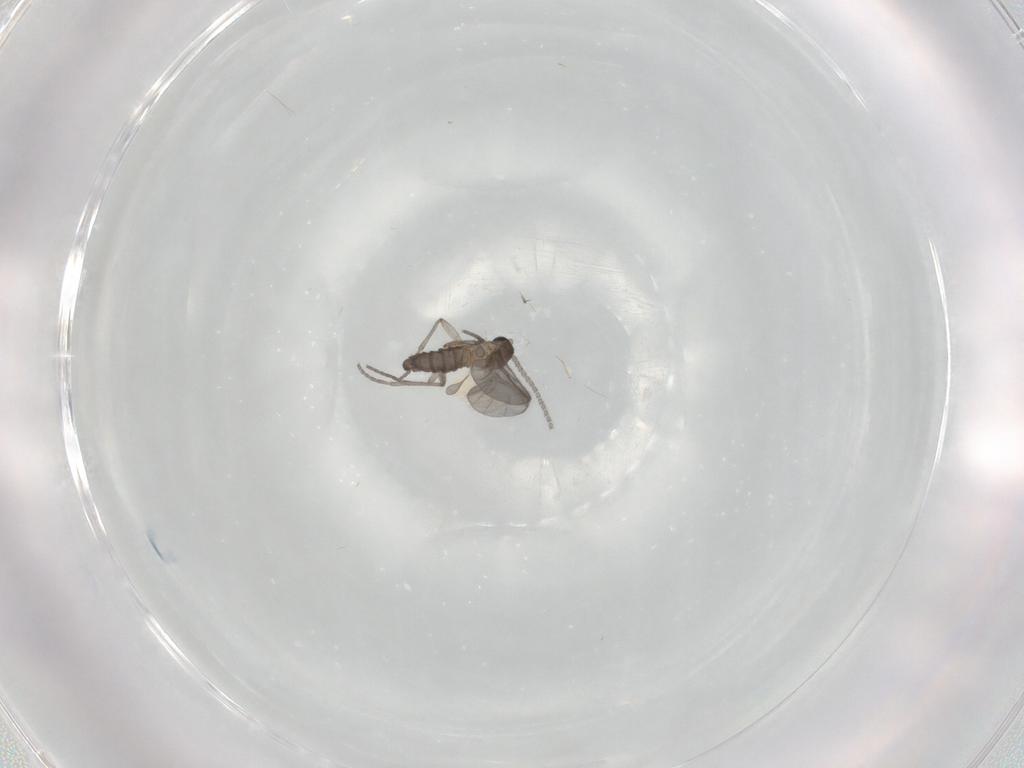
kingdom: Animalia
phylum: Arthropoda
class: Insecta
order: Diptera
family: Sciaridae
